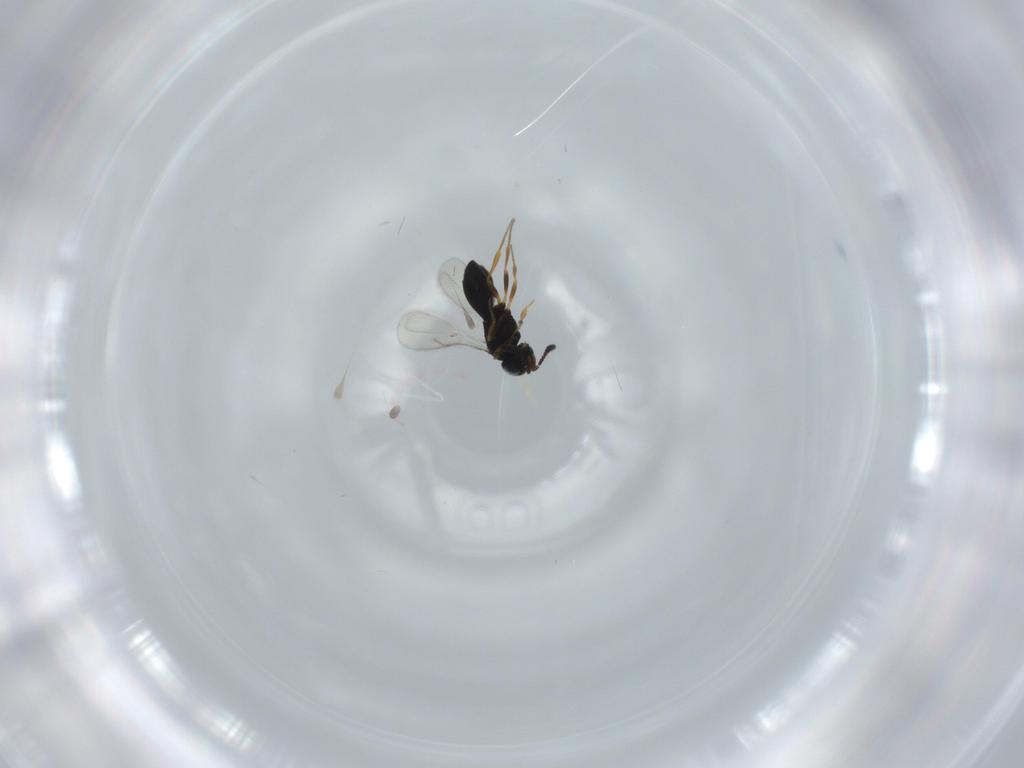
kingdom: Animalia
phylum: Arthropoda
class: Insecta
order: Hymenoptera
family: Scelionidae
